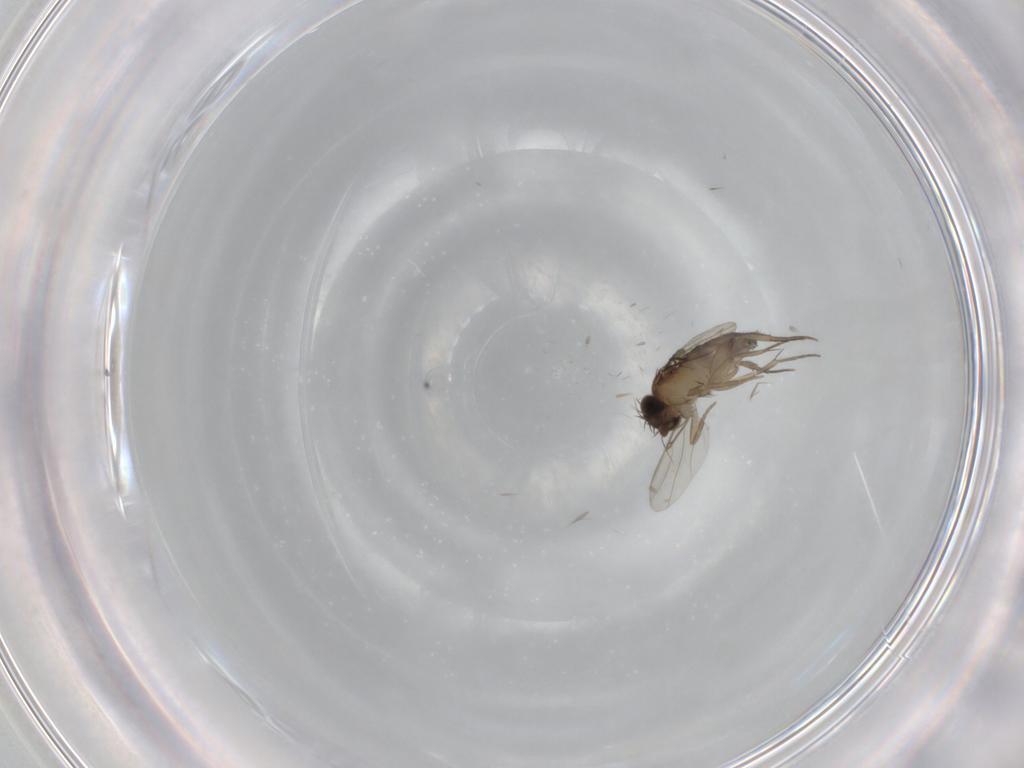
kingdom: Animalia
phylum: Arthropoda
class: Insecta
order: Diptera
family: Phoridae
